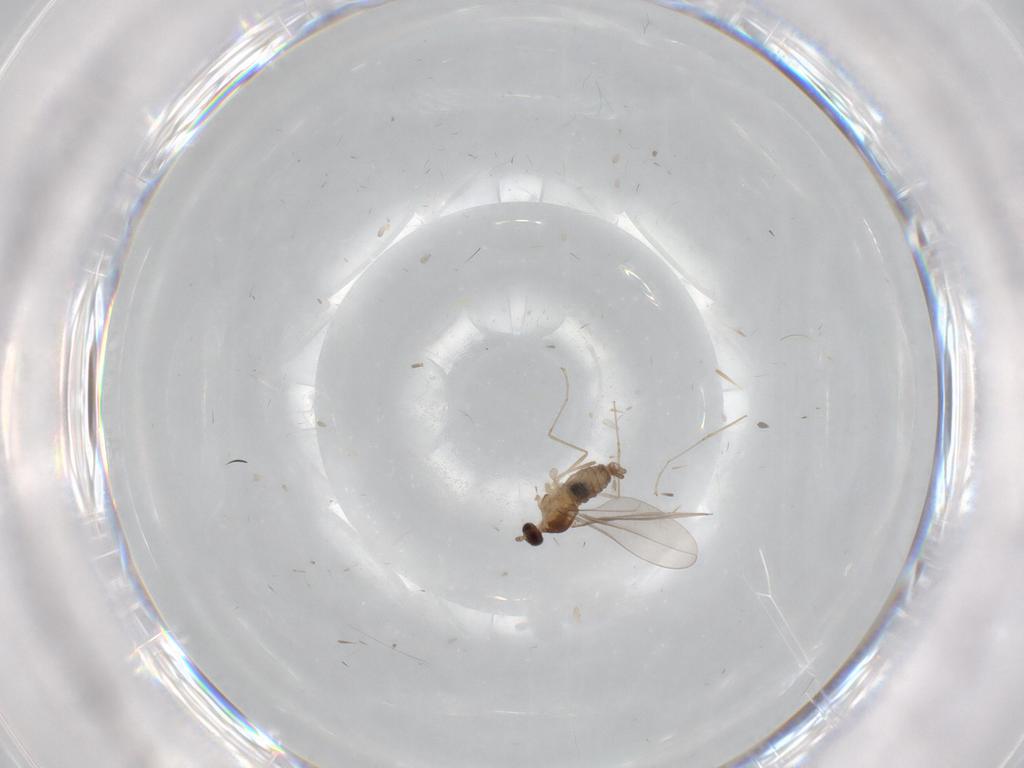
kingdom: Animalia
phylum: Arthropoda
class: Insecta
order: Diptera
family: Cecidomyiidae
